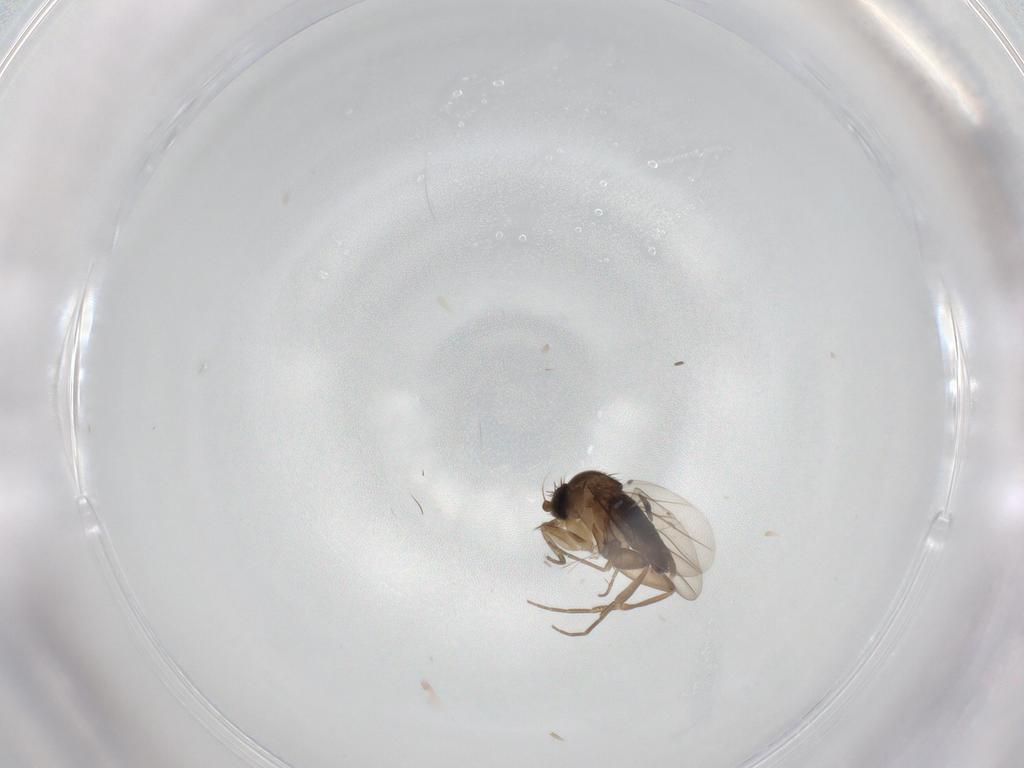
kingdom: Animalia
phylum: Arthropoda
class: Insecta
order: Diptera
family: Phoridae
